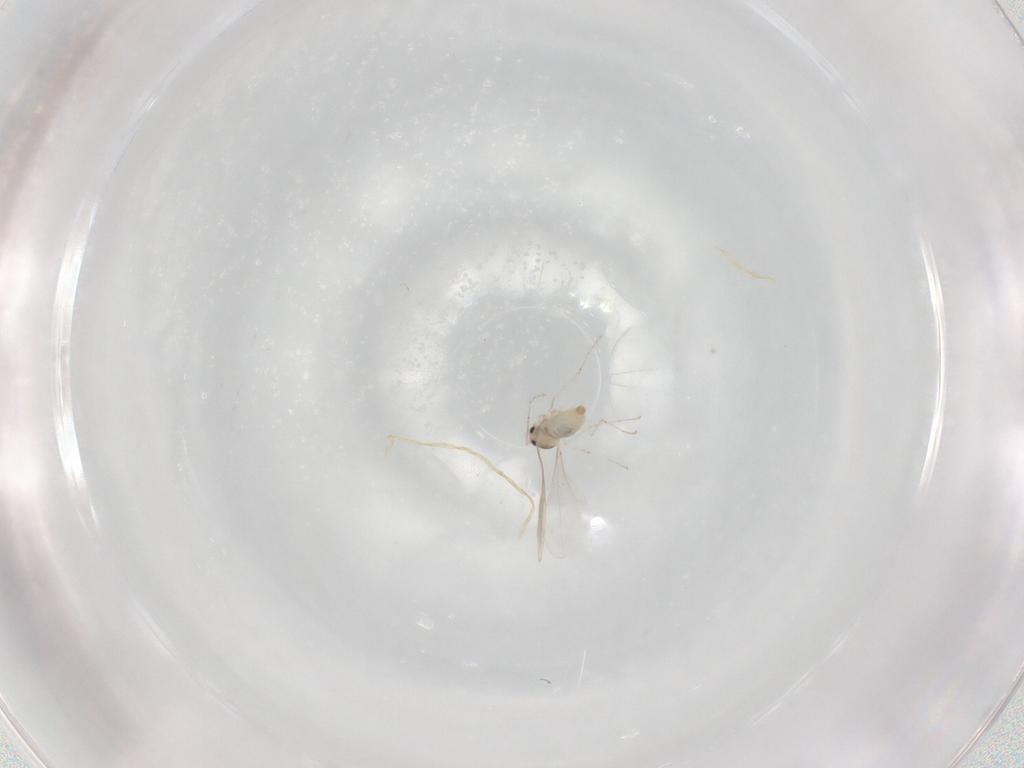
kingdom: Animalia
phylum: Arthropoda
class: Insecta
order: Diptera
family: Cecidomyiidae
